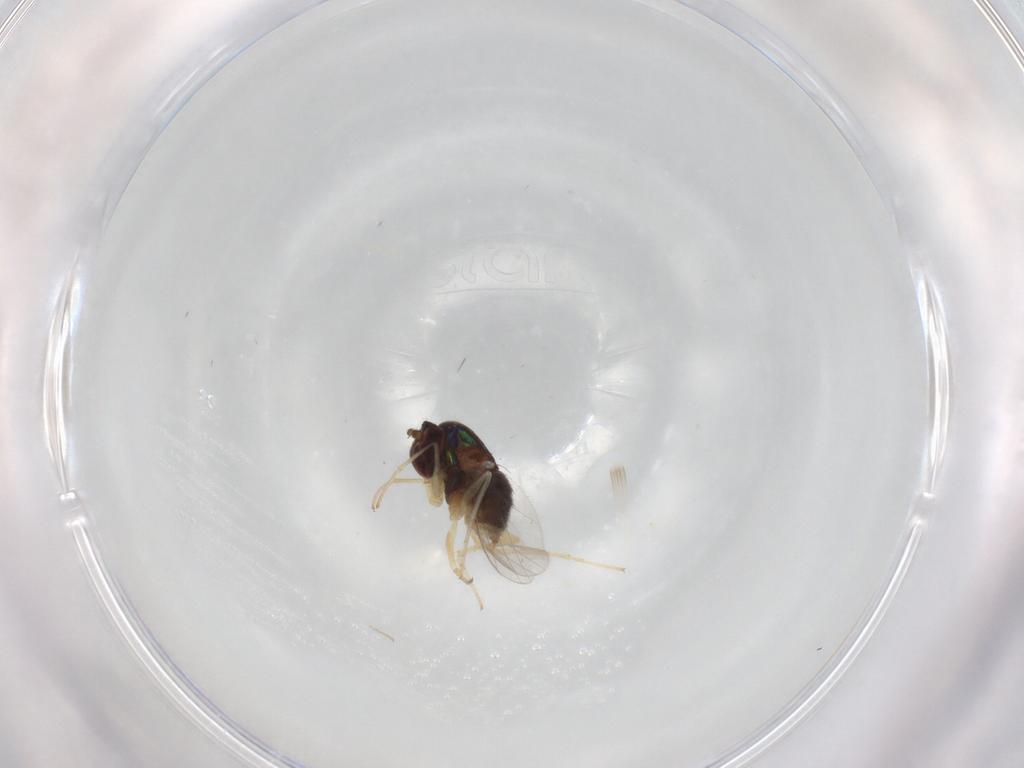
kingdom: Animalia
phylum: Arthropoda
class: Insecta
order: Diptera
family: Dolichopodidae
